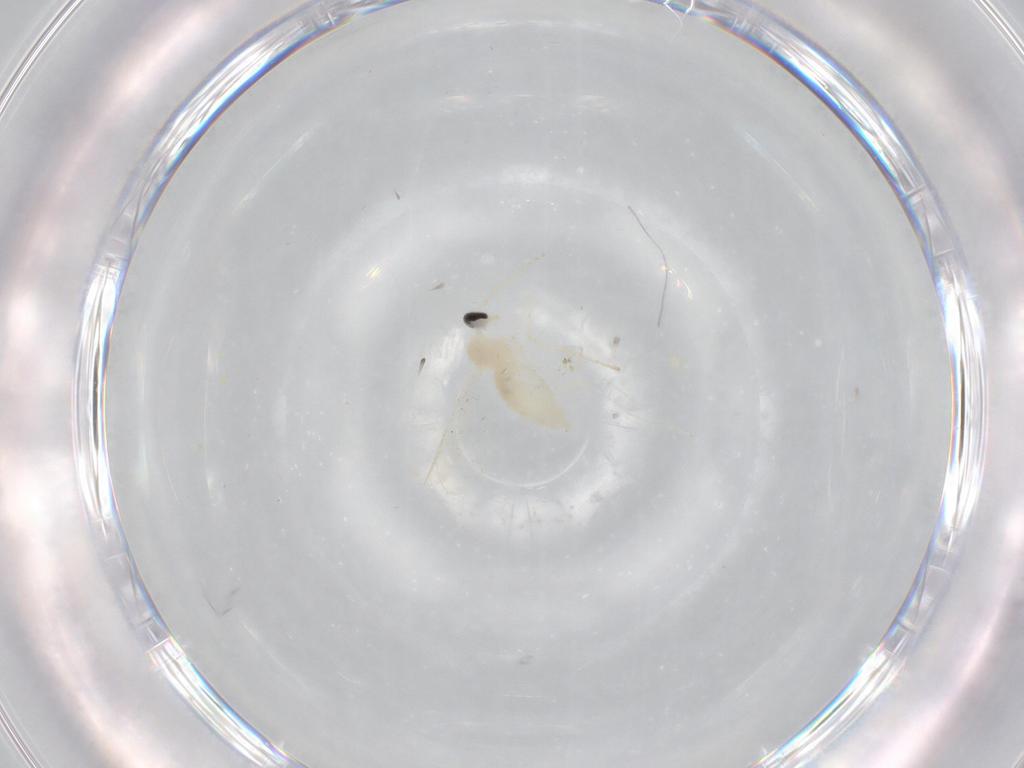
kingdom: Animalia
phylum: Arthropoda
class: Insecta
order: Diptera
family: Cecidomyiidae
